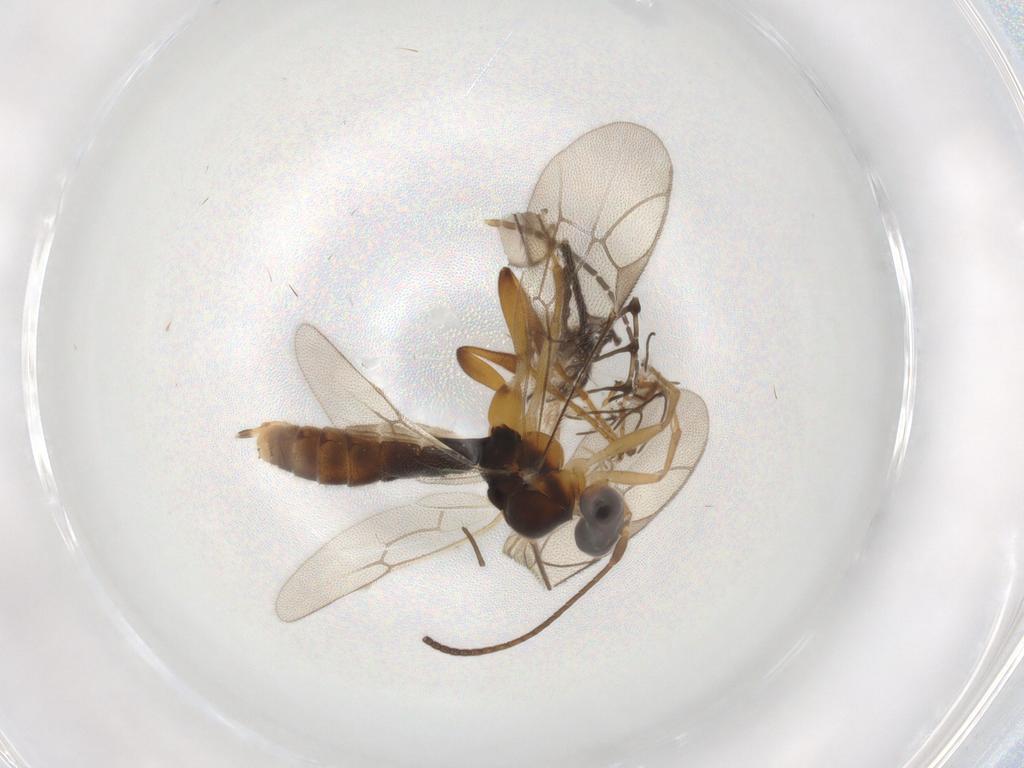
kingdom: Animalia
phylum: Arthropoda
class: Insecta
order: Hymenoptera
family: Ichneumonidae
